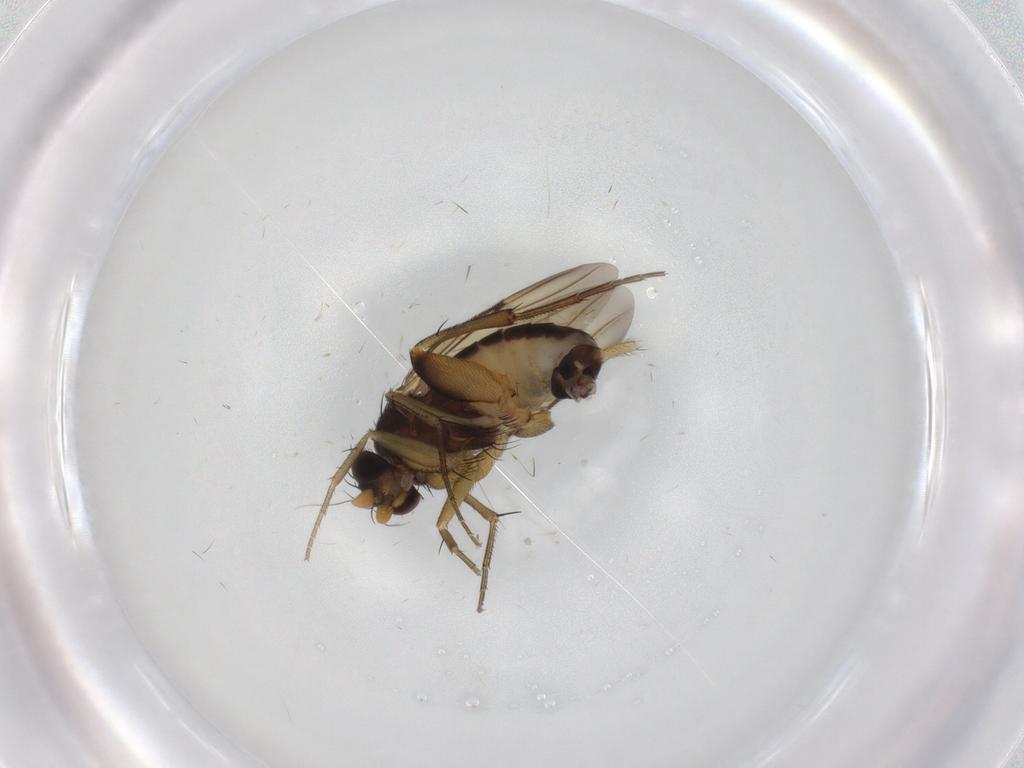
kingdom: Animalia
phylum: Arthropoda
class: Insecta
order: Diptera
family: Phoridae
